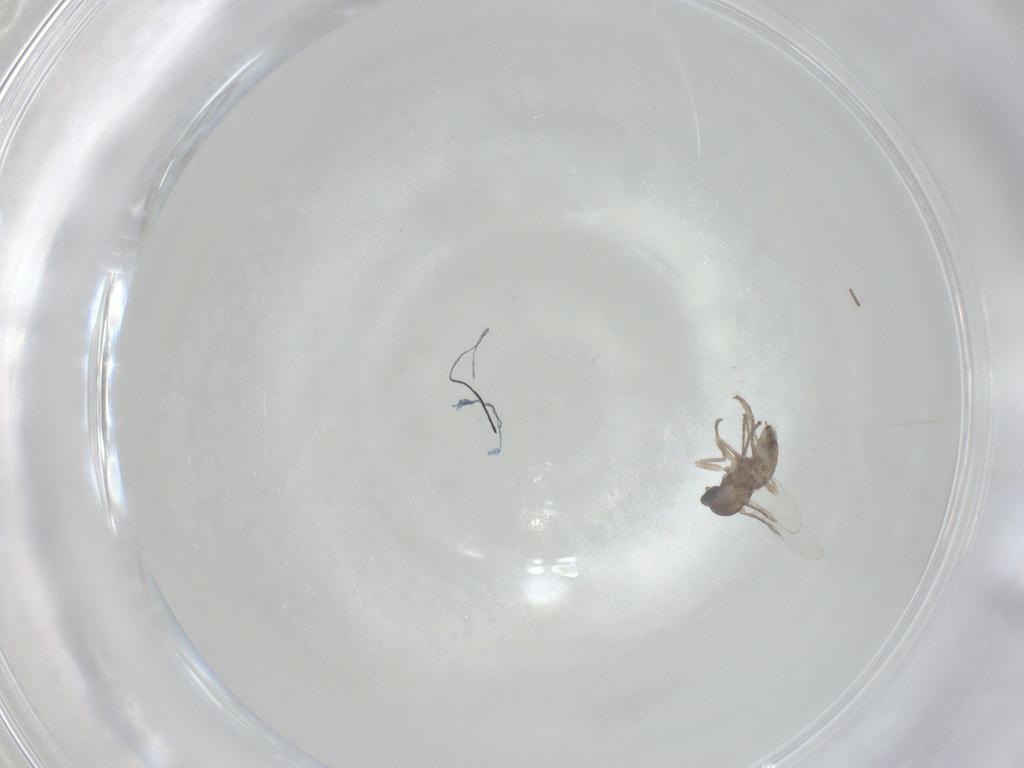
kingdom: Animalia
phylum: Arthropoda
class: Insecta
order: Diptera
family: Cecidomyiidae
